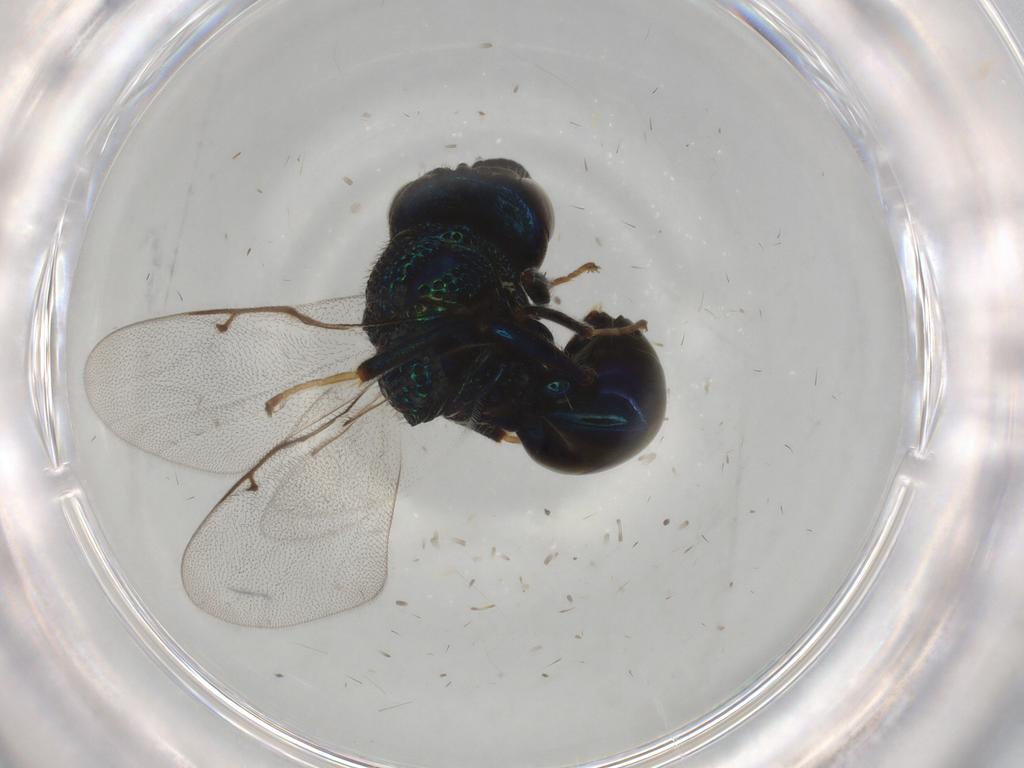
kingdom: Animalia
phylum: Arthropoda
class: Insecta
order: Hymenoptera
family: Perilampidae
